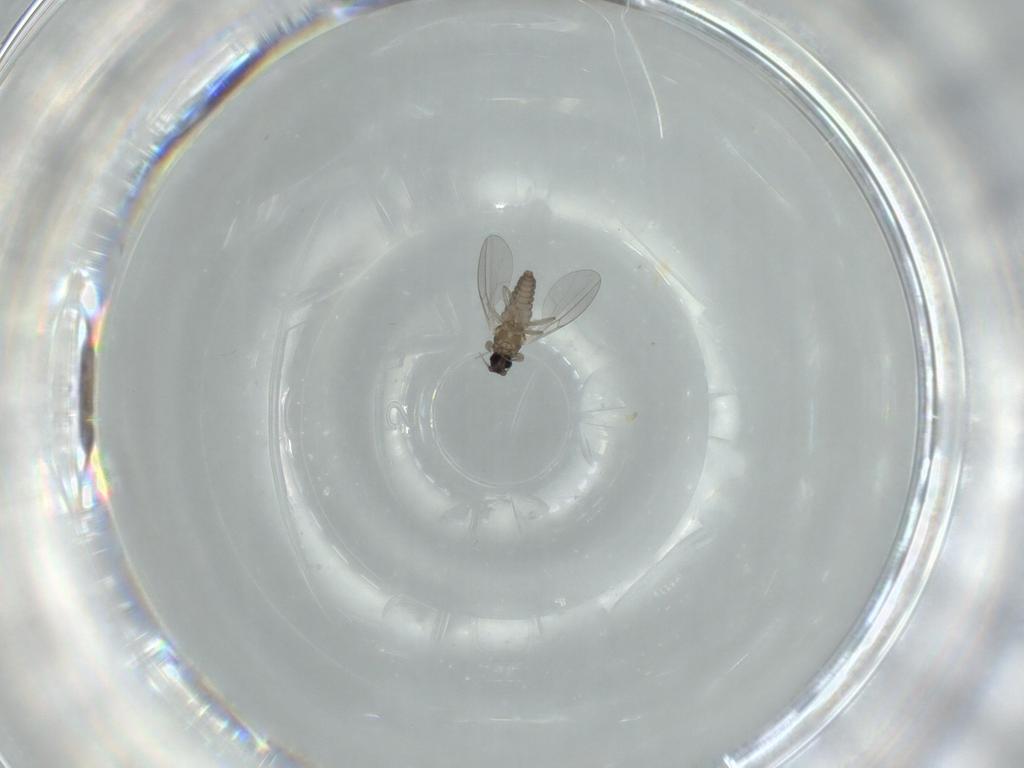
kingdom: Animalia
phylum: Arthropoda
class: Insecta
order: Diptera
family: Cecidomyiidae
